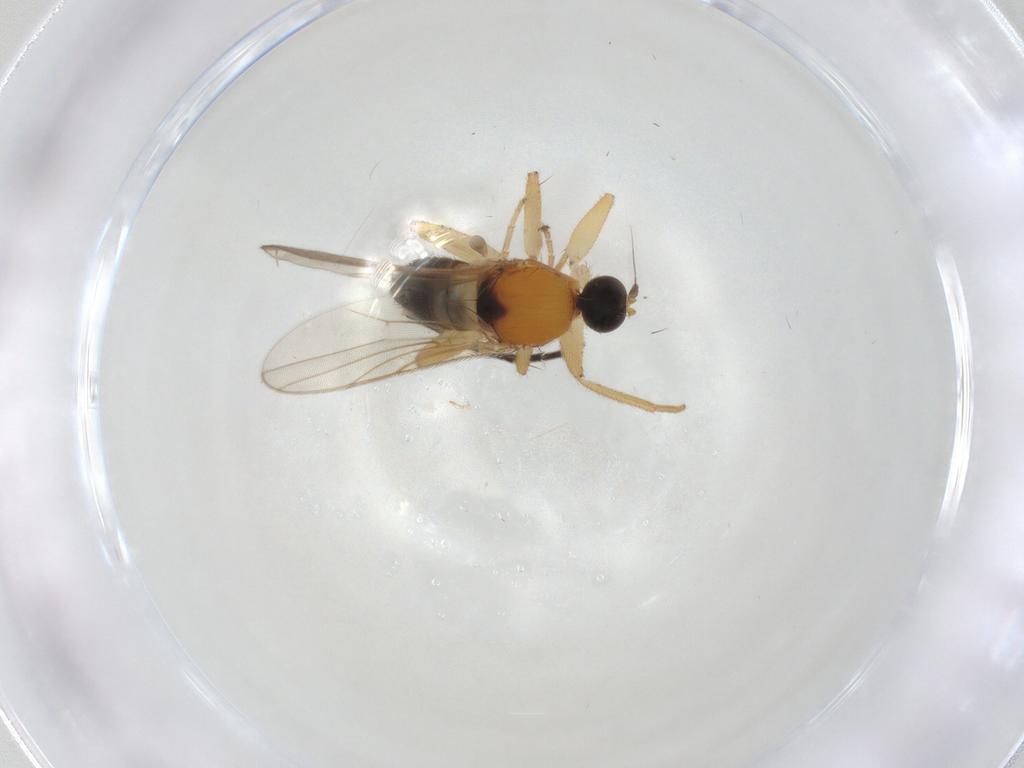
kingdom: Animalia
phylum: Arthropoda
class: Insecta
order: Diptera
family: Hybotidae
